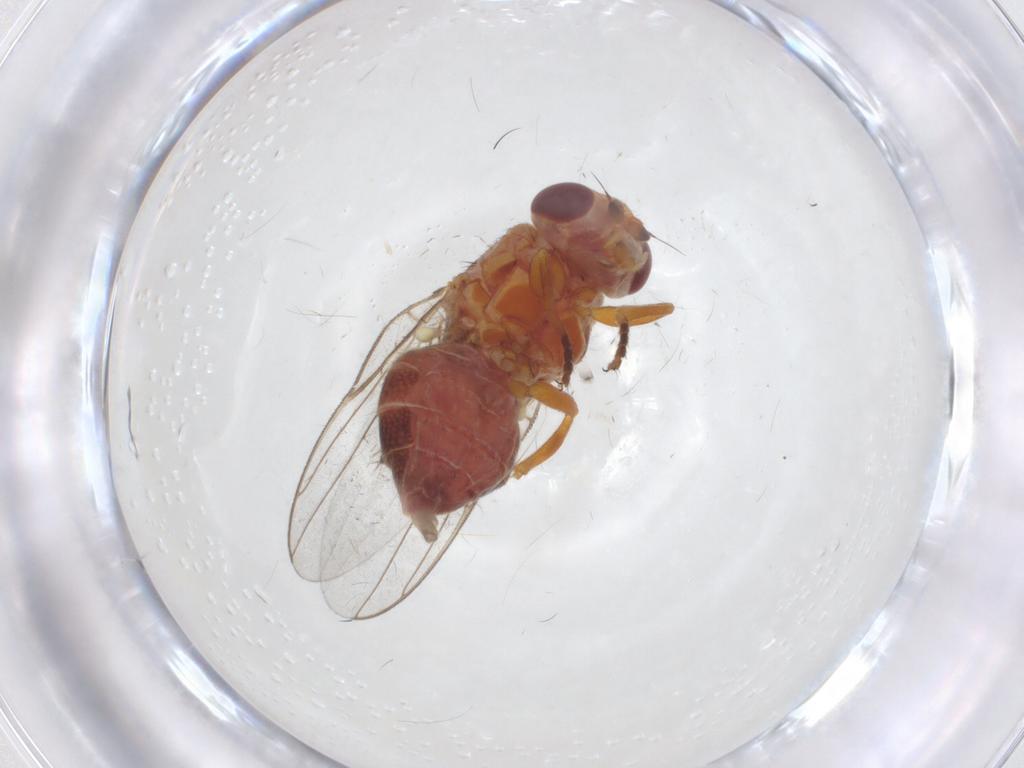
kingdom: Animalia
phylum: Arthropoda
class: Insecta
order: Diptera
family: Chloropidae
